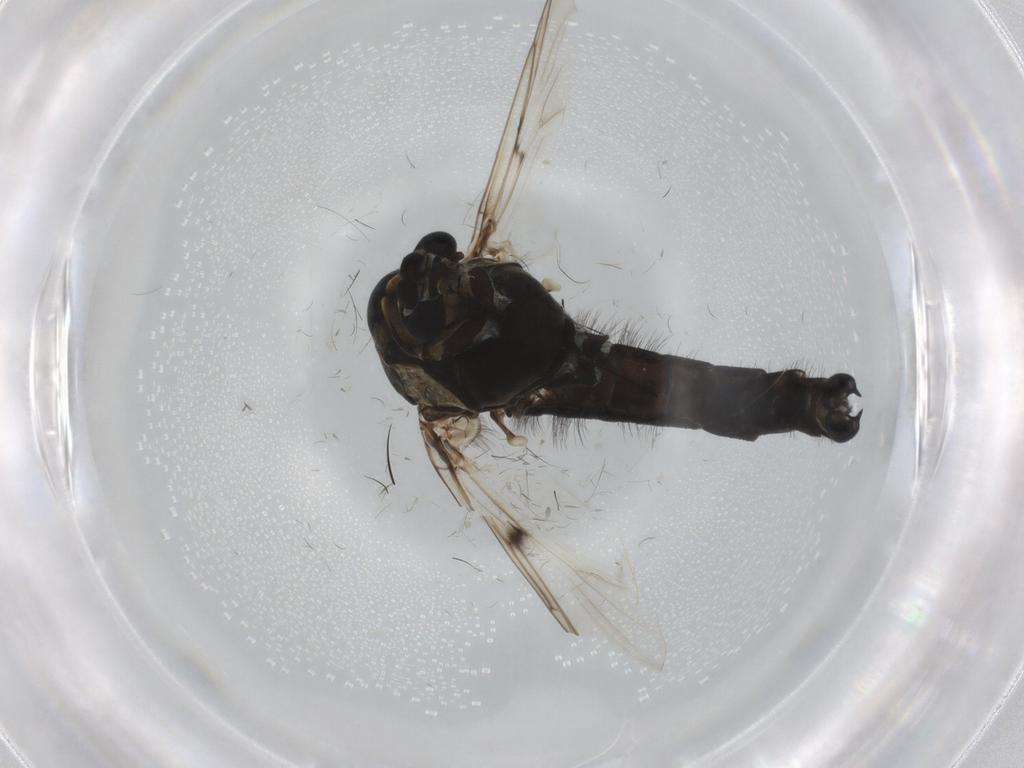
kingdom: Animalia
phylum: Arthropoda
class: Insecta
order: Diptera
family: Chironomidae
